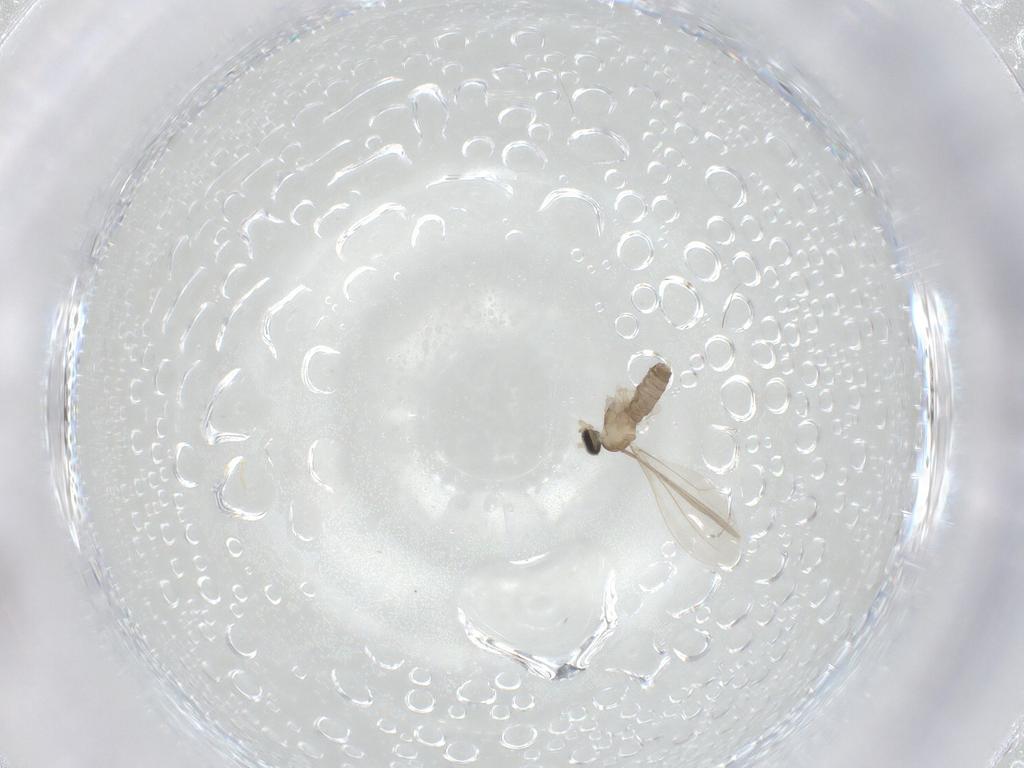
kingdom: Animalia
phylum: Arthropoda
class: Insecta
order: Diptera
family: Cecidomyiidae
